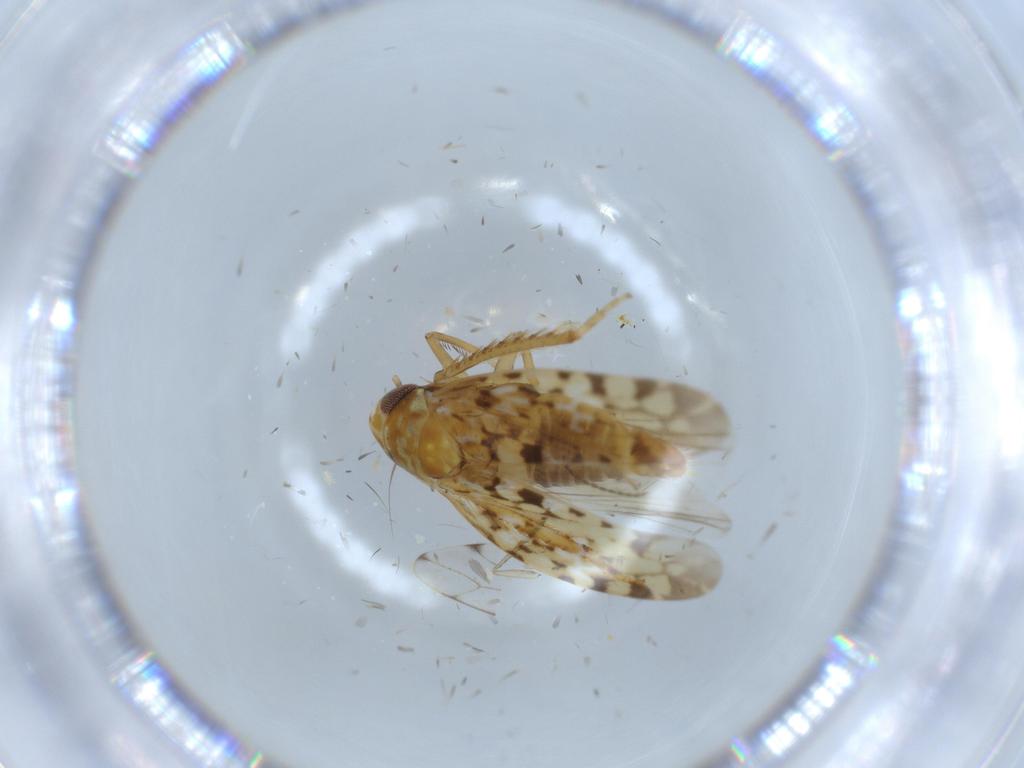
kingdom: Animalia
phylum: Arthropoda
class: Insecta
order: Hemiptera
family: Cicadellidae
